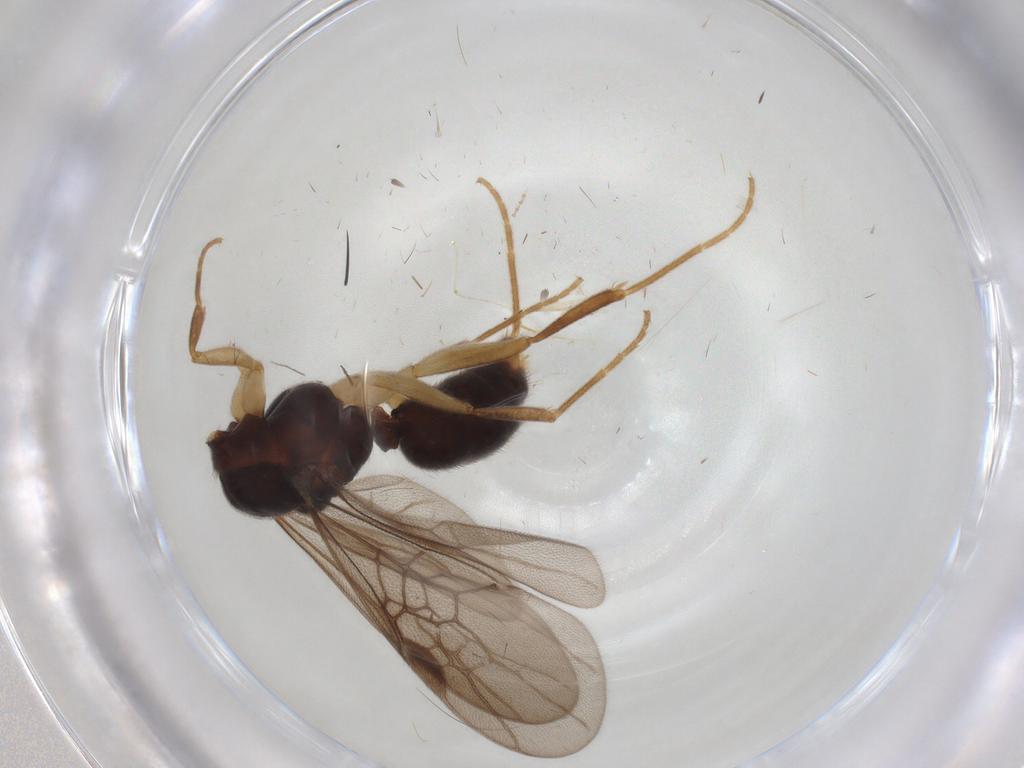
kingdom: Animalia
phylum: Arthropoda
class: Insecta
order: Hymenoptera
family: Formicidae
